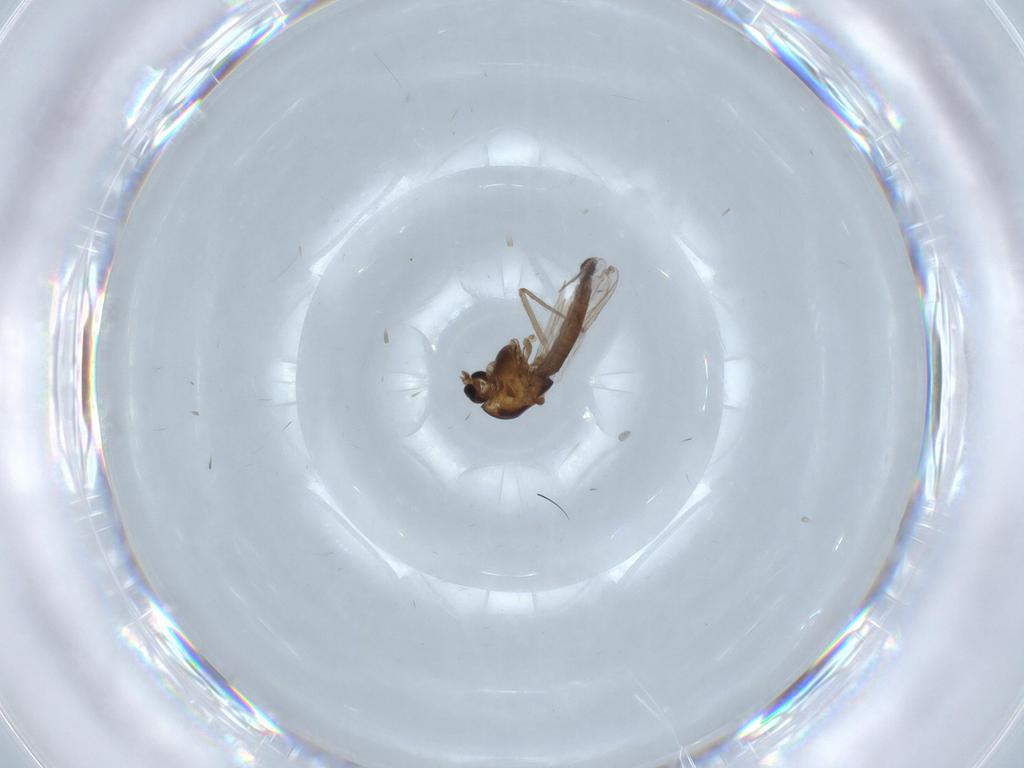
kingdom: Animalia
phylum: Arthropoda
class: Insecta
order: Diptera
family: Chironomidae
